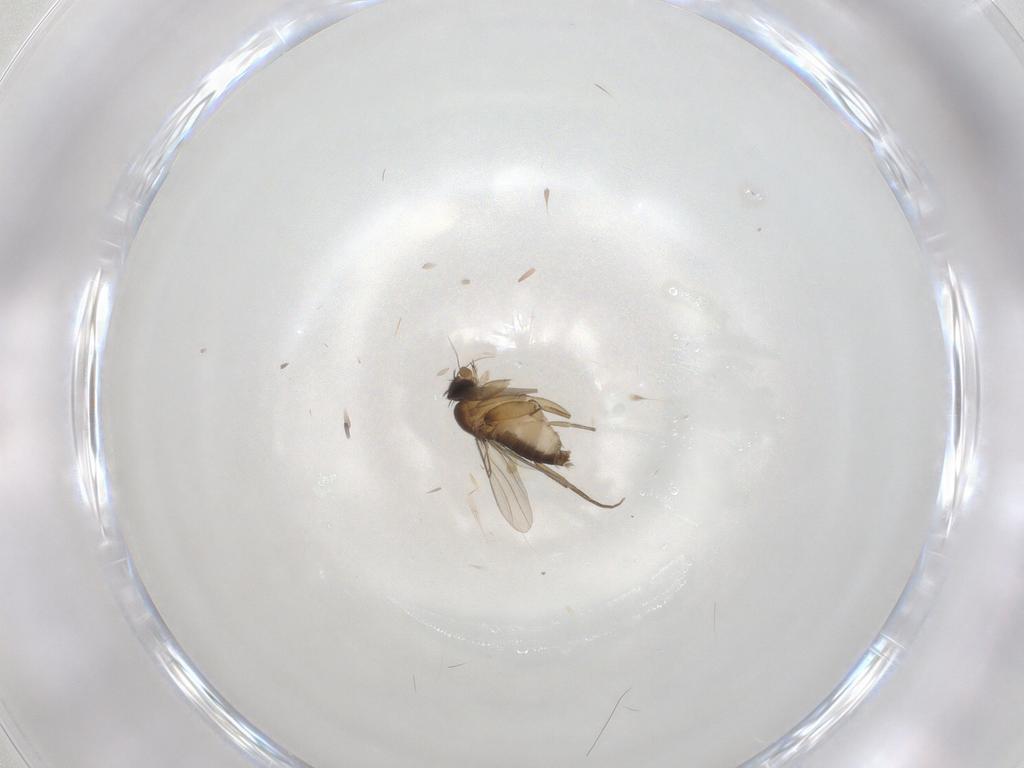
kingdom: Animalia
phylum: Arthropoda
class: Insecta
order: Diptera
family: Phoridae
